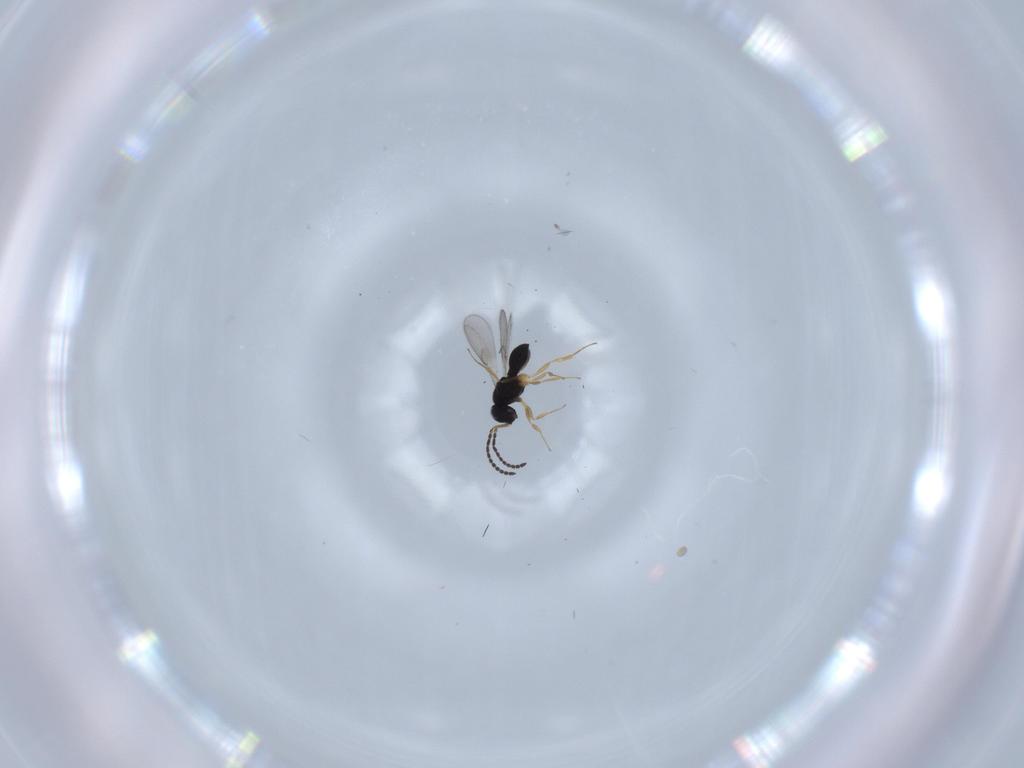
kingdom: Animalia
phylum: Arthropoda
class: Insecta
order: Hymenoptera
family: Scelionidae
